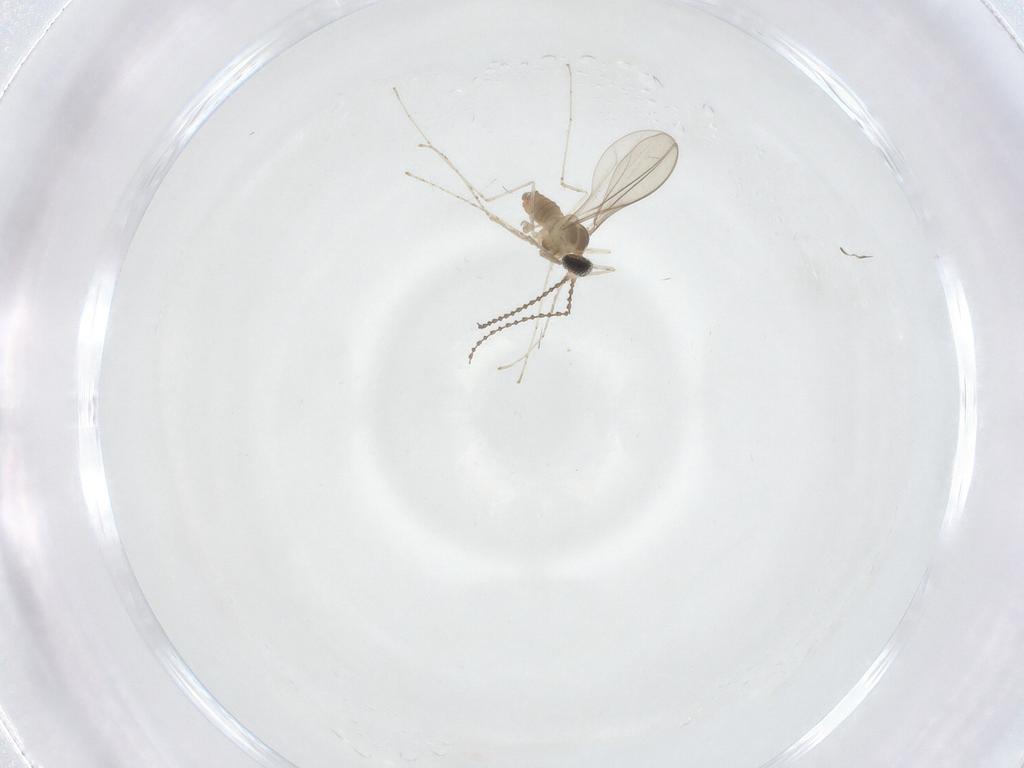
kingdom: Animalia
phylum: Arthropoda
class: Insecta
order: Diptera
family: Cecidomyiidae
